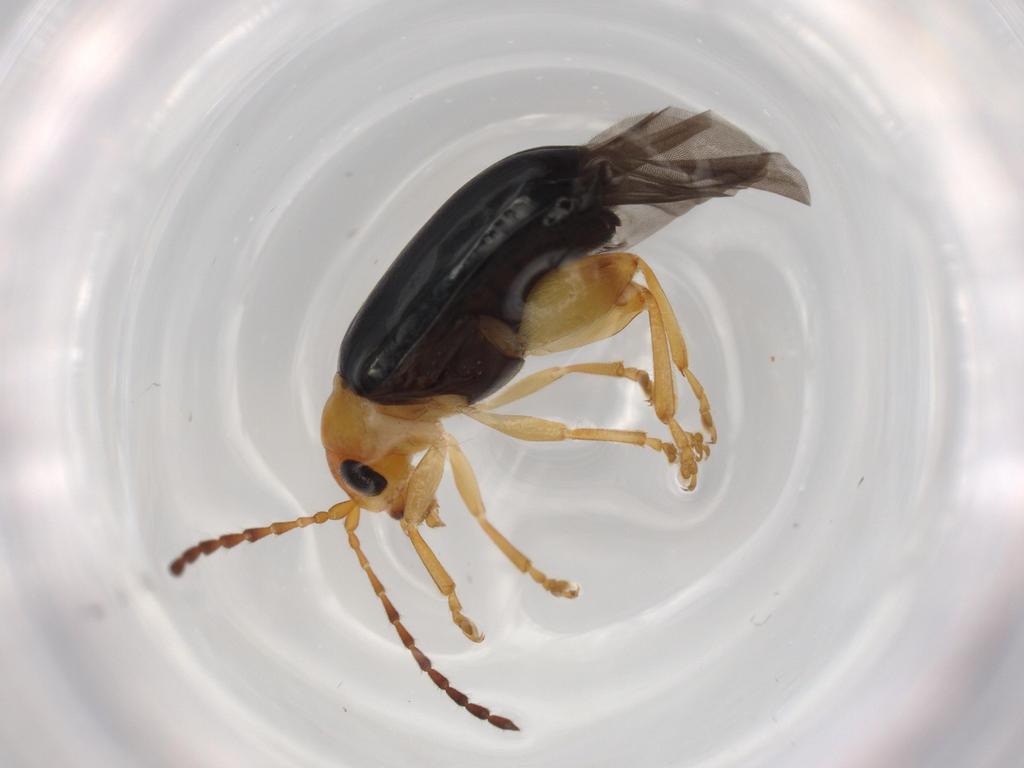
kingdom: Animalia
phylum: Arthropoda
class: Insecta
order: Coleoptera
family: Chrysomelidae
